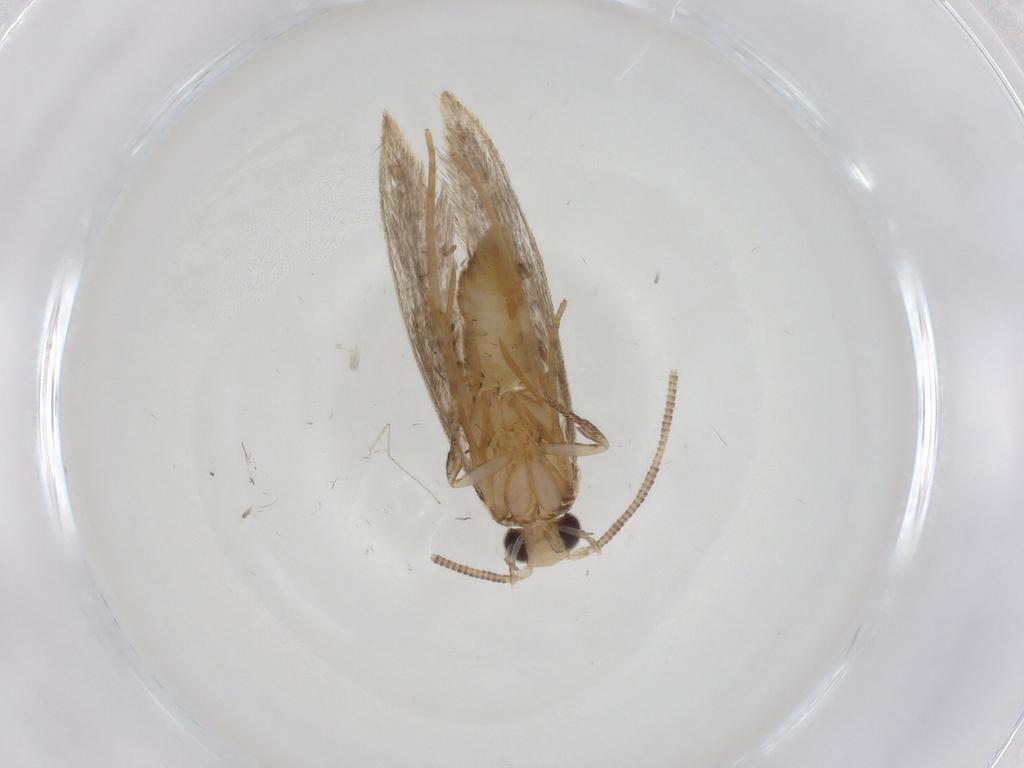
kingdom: Animalia
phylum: Arthropoda
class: Insecta
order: Lepidoptera
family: Tineidae
